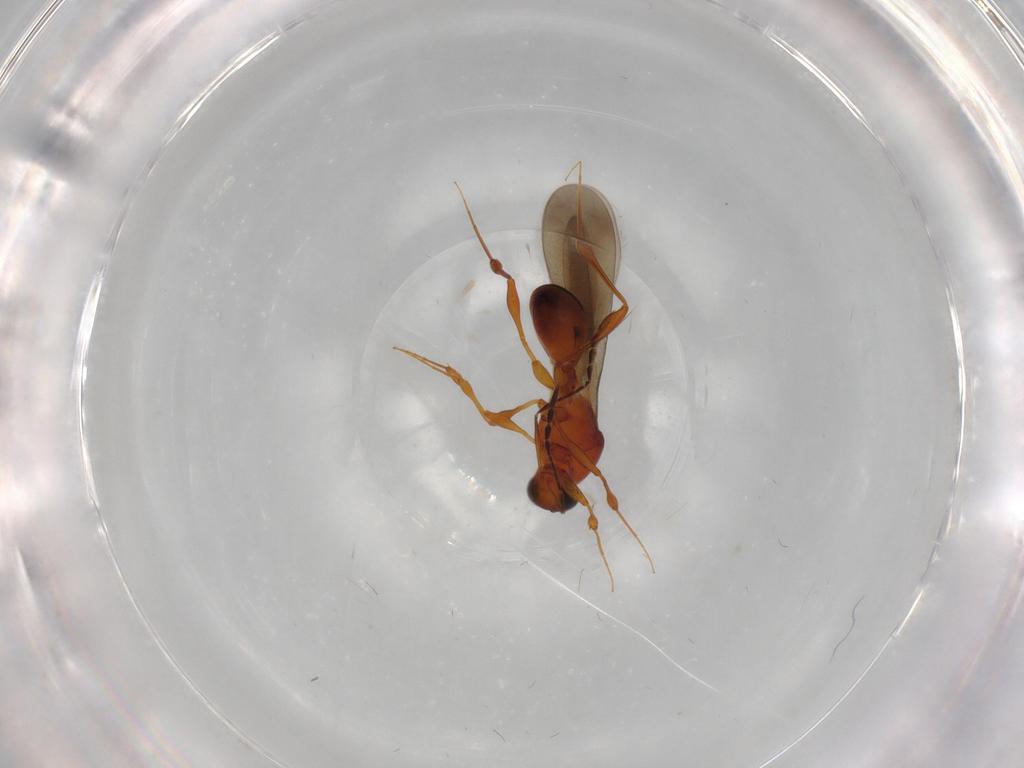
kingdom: Animalia
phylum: Arthropoda
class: Insecta
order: Hymenoptera
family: Platygastridae
